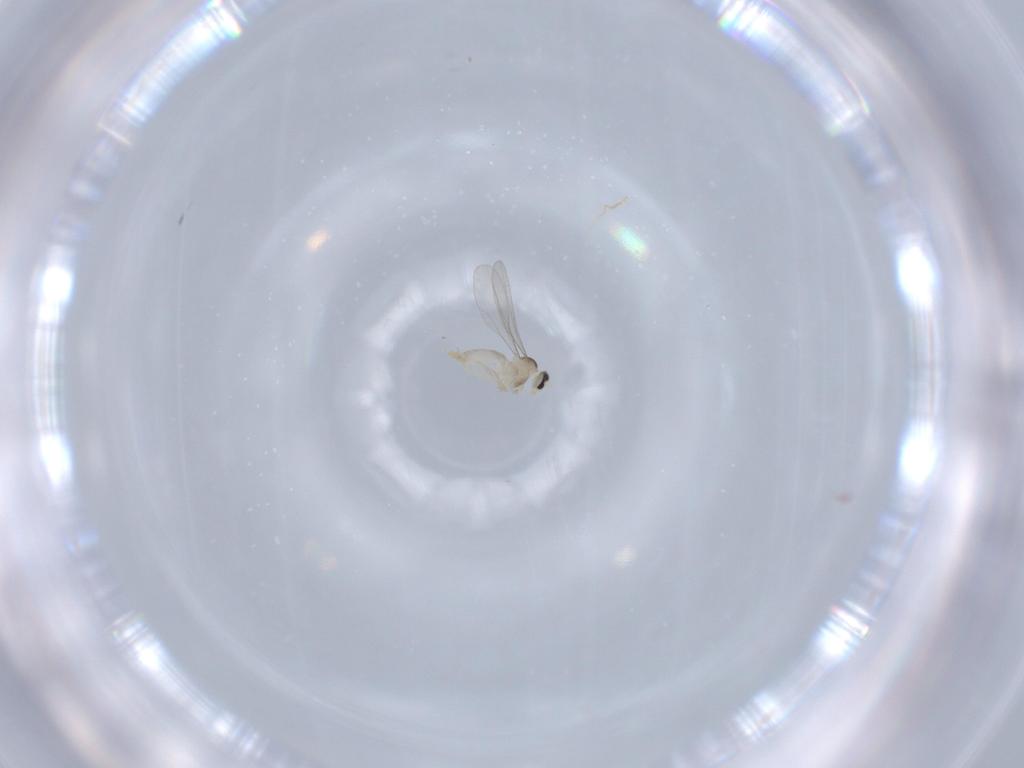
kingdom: Animalia
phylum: Arthropoda
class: Insecta
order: Diptera
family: Cecidomyiidae
